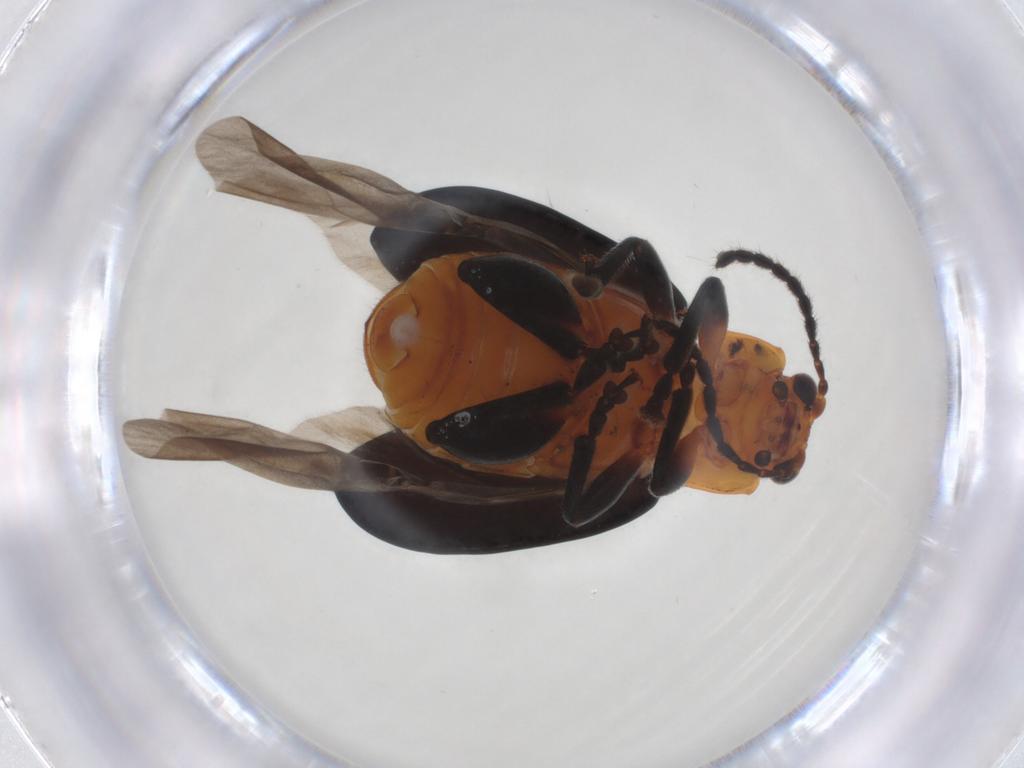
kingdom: Animalia
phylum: Arthropoda
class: Insecta
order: Coleoptera
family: Chrysomelidae
